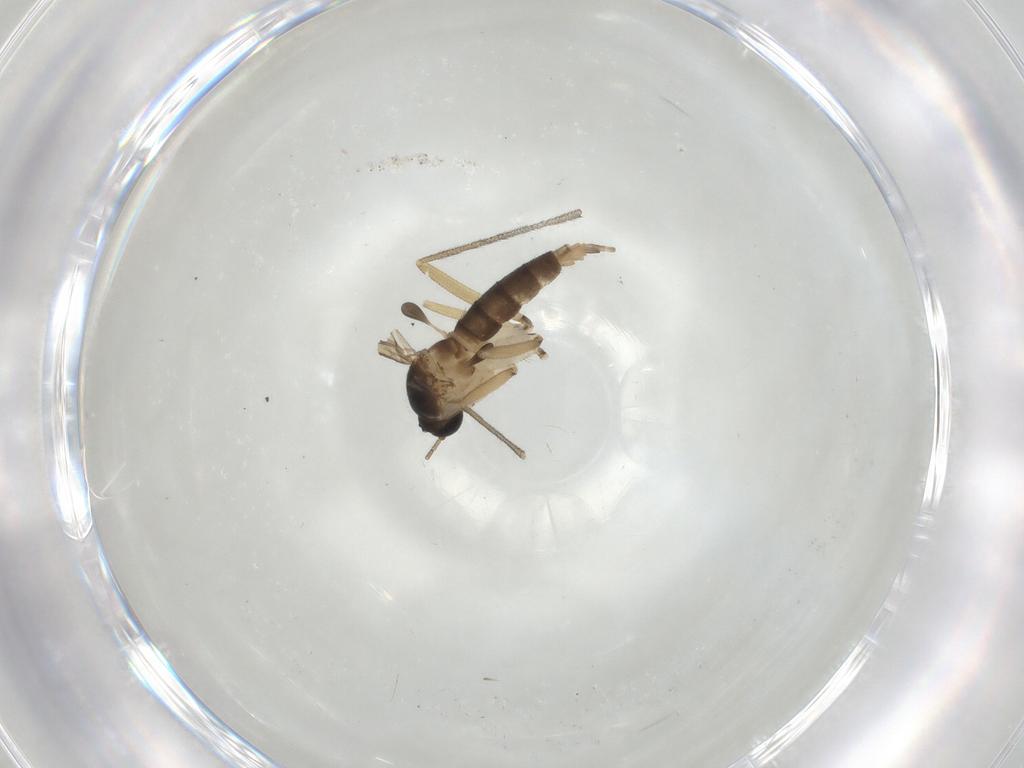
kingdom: Animalia
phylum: Arthropoda
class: Insecta
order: Diptera
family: Sciaridae
